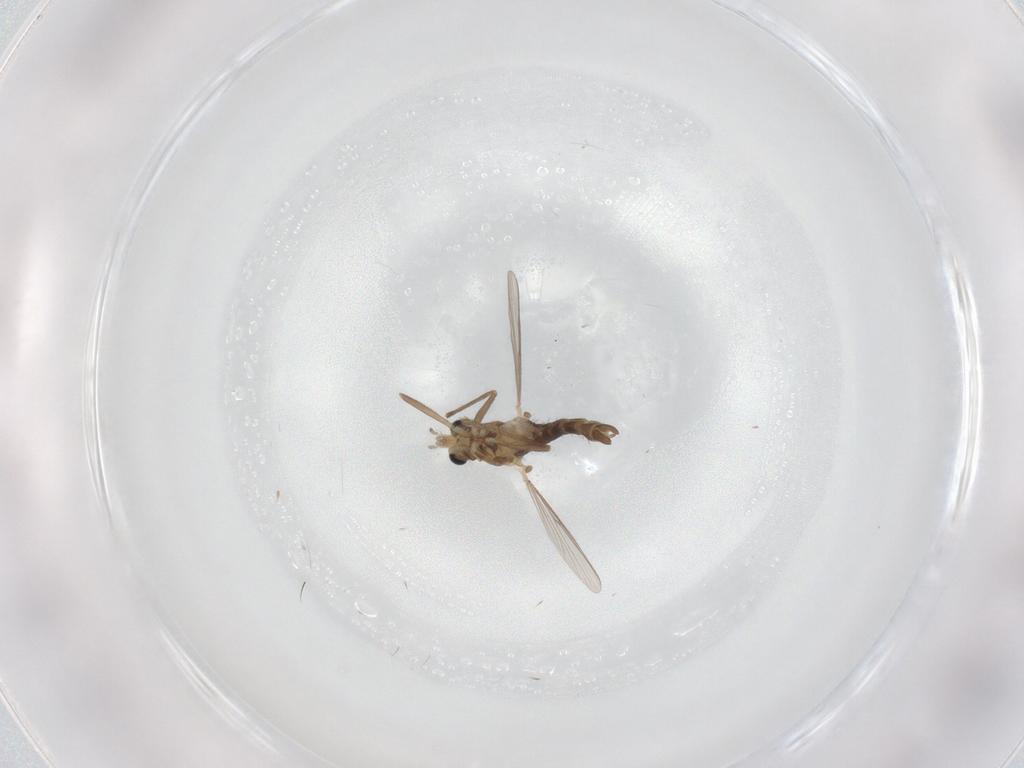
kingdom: Animalia
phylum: Arthropoda
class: Insecta
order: Diptera
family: Chironomidae
